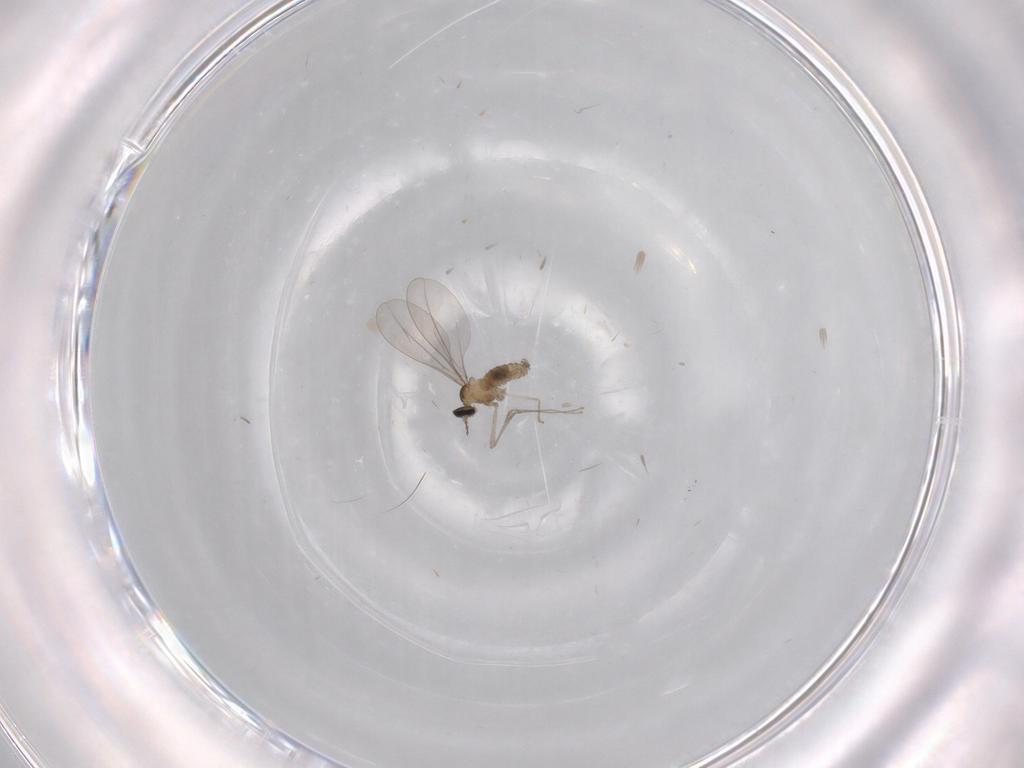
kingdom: Animalia
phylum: Arthropoda
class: Insecta
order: Diptera
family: Cecidomyiidae
